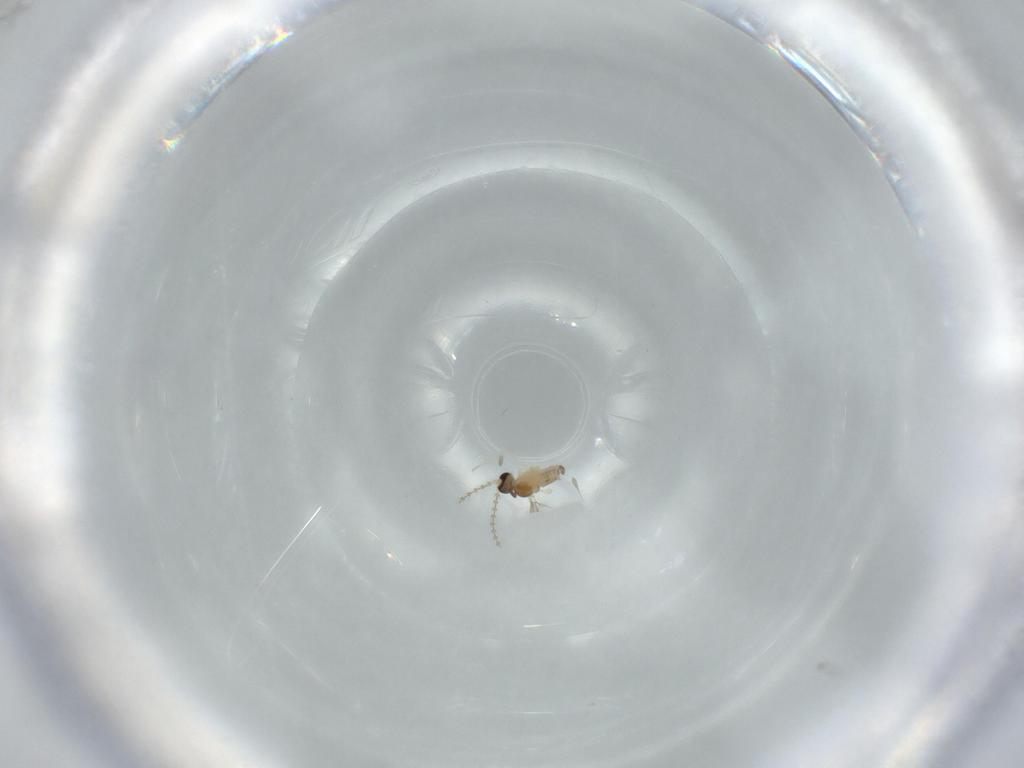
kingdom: Animalia
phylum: Arthropoda
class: Insecta
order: Diptera
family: Cecidomyiidae
